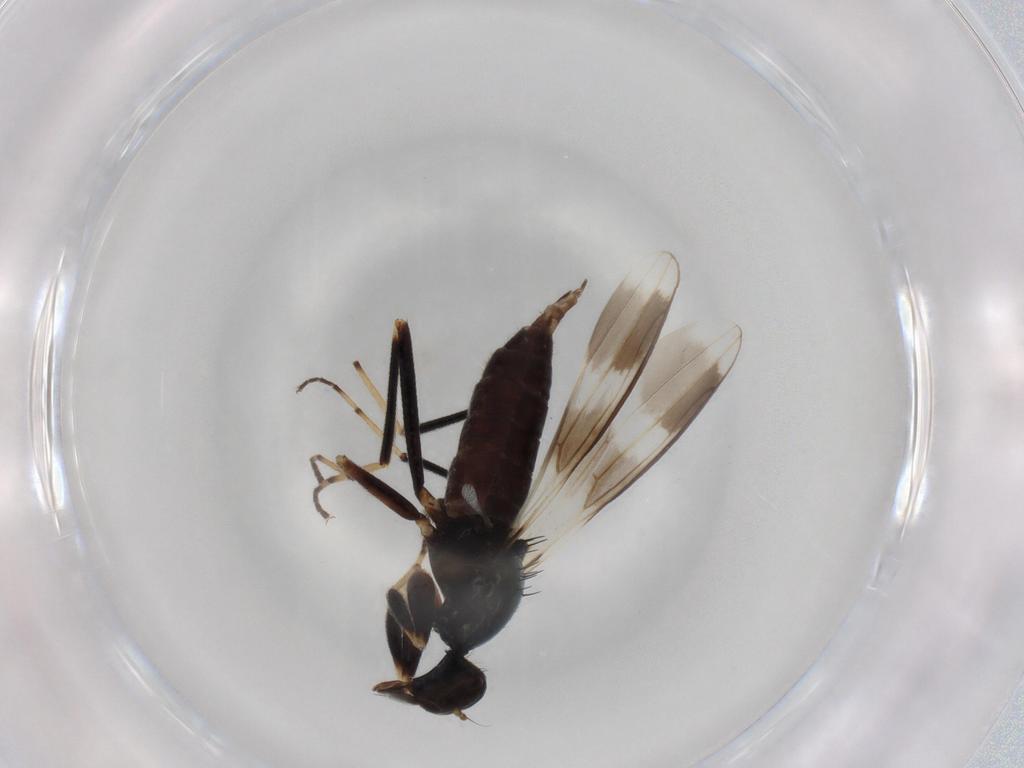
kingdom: Animalia
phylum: Arthropoda
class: Insecta
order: Diptera
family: Hybotidae
